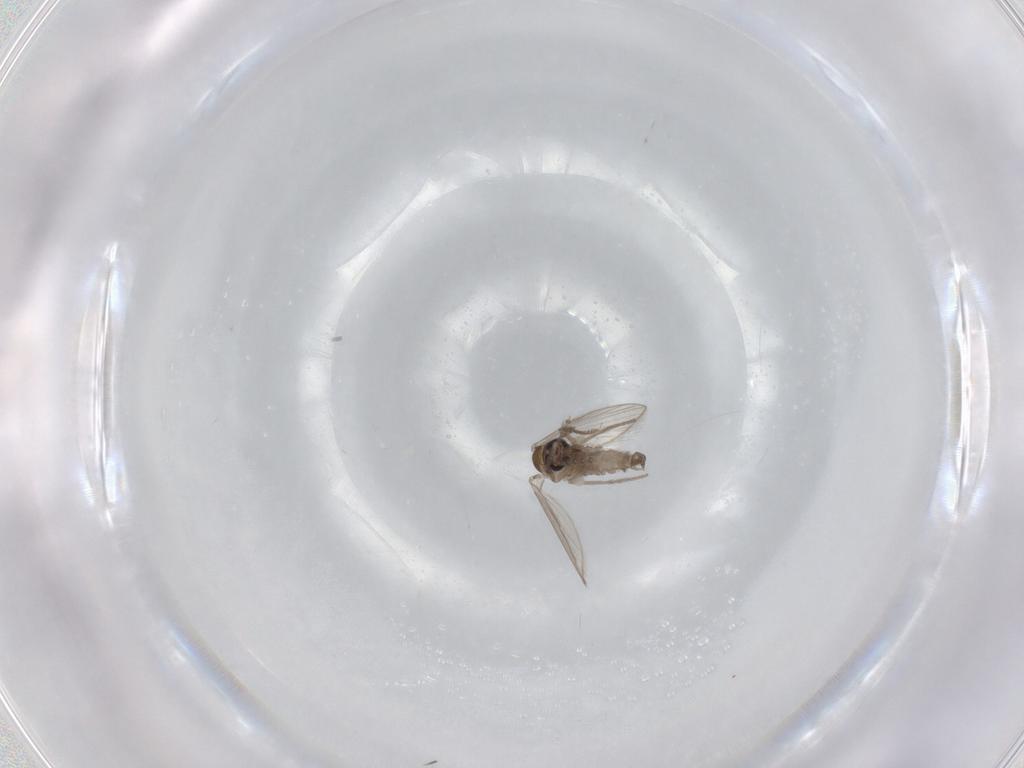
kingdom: Animalia
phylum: Arthropoda
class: Insecta
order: Diptera
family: Psychodidae
